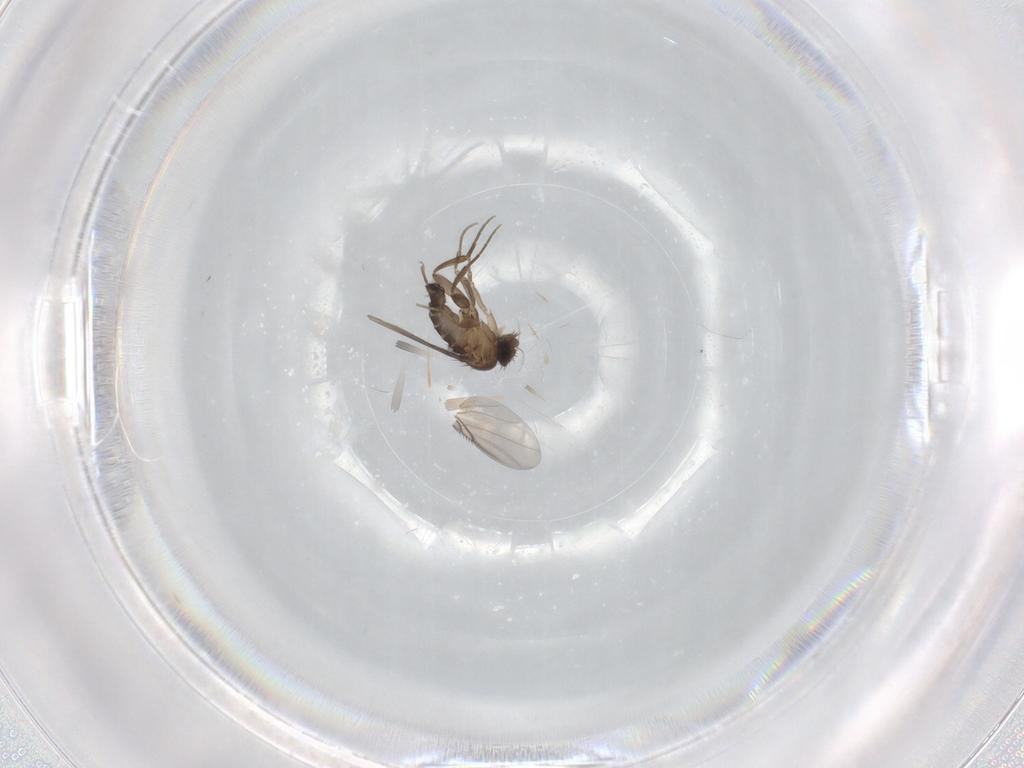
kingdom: Animalia
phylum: Arthropoda
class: Insecta
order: Diptera
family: Phoridae
